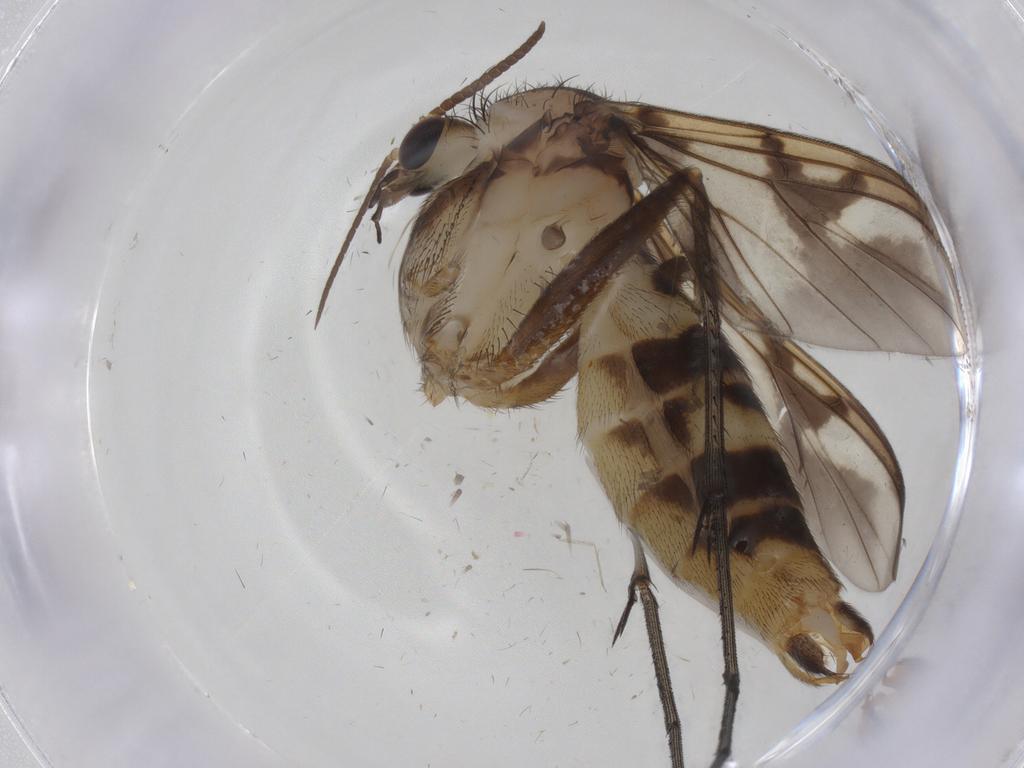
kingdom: Animalia
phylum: Arthropoda
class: Insecta
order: Diptera
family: Mycetophilidae
